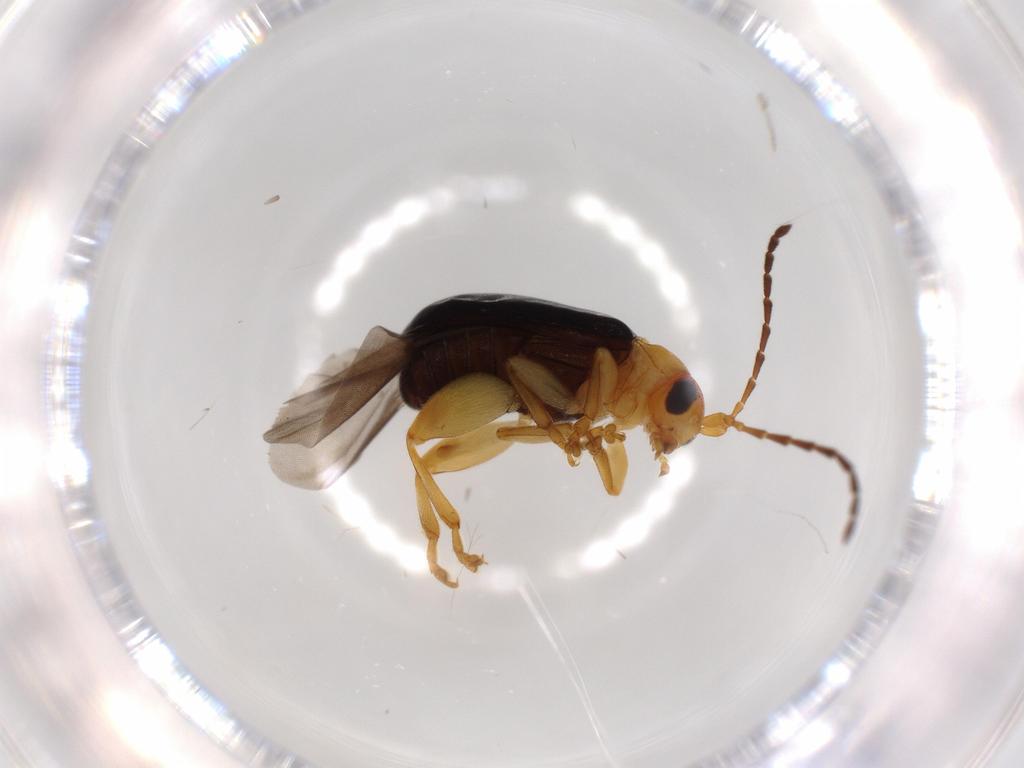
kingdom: Animalia
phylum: Arthropoda
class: Insecta
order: Coleoptera
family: Chrysomelidae
